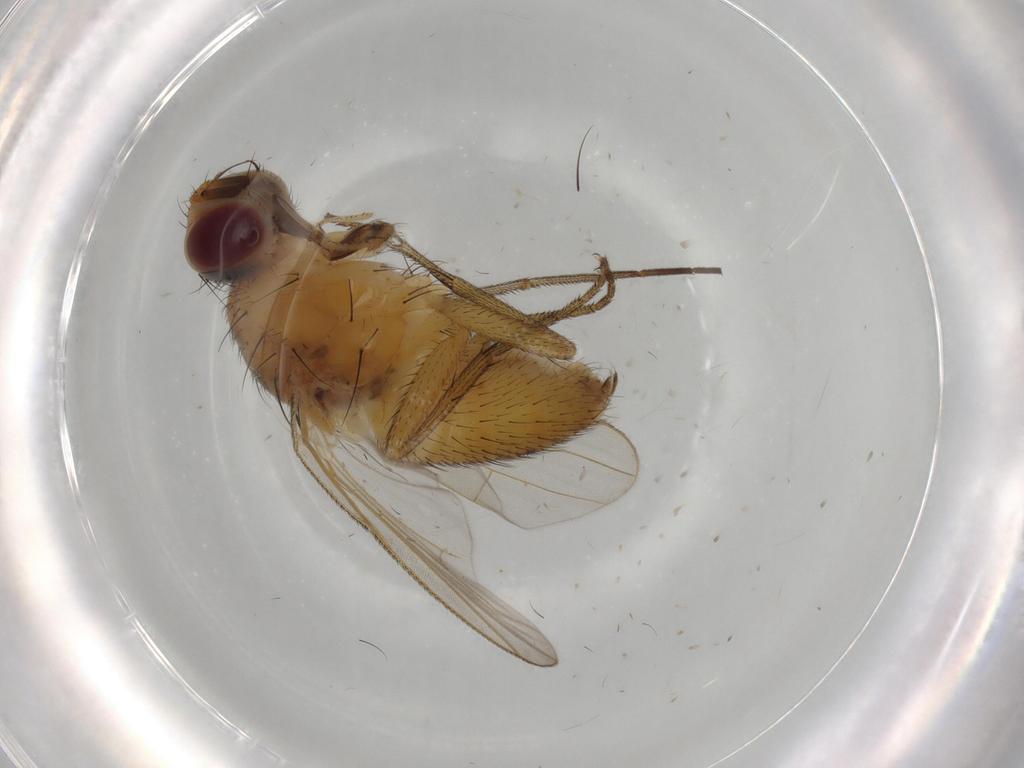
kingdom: Animalia
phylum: Arthropoda
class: Insecta
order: Diptera
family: Muscidae
